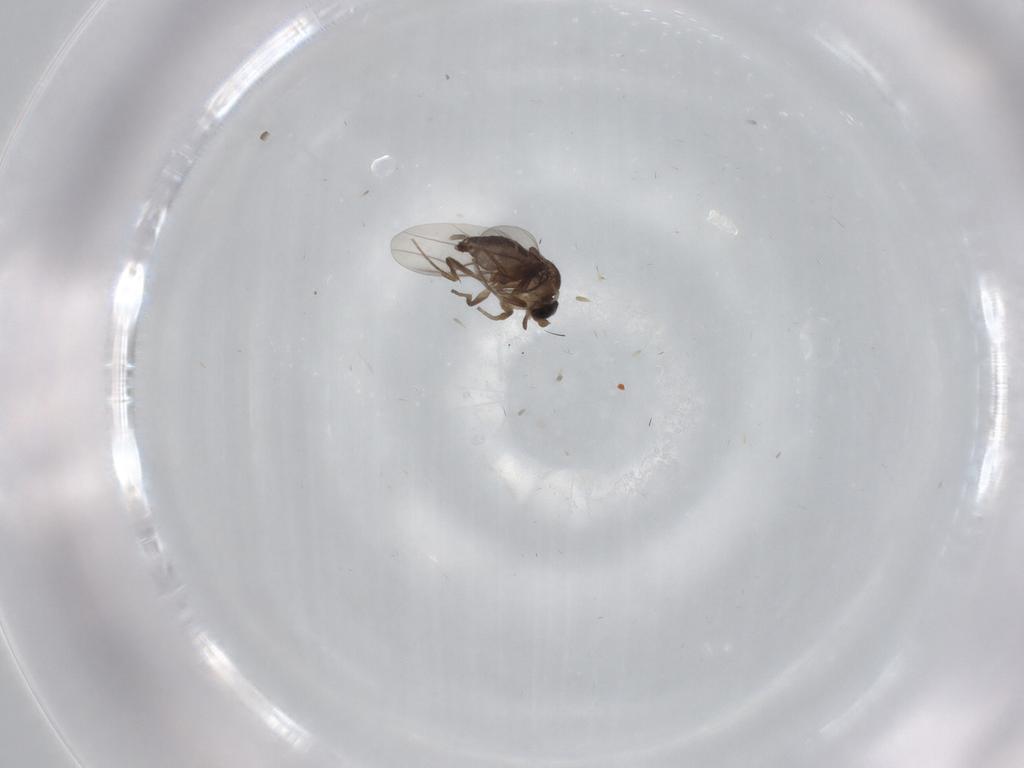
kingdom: Animalia
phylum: Arthropoda
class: Insecta
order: Diptera
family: Phoridae
